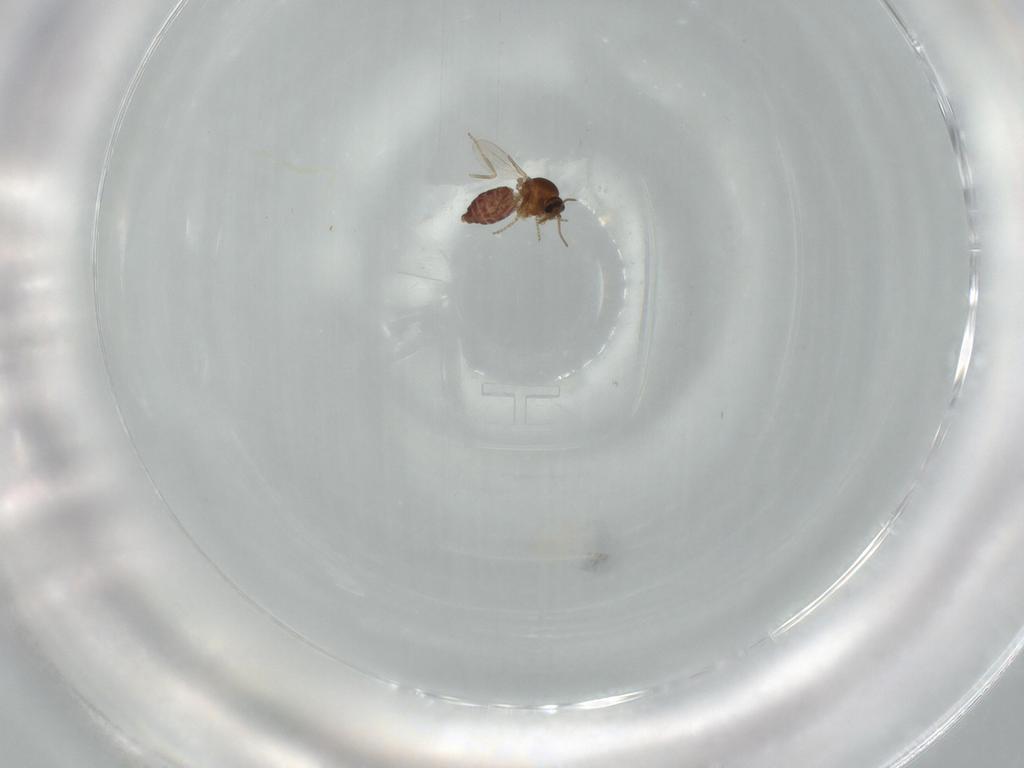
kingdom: Animalia
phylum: Arthropoda
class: Insecta
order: Diptera
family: Ceratopogonidae
